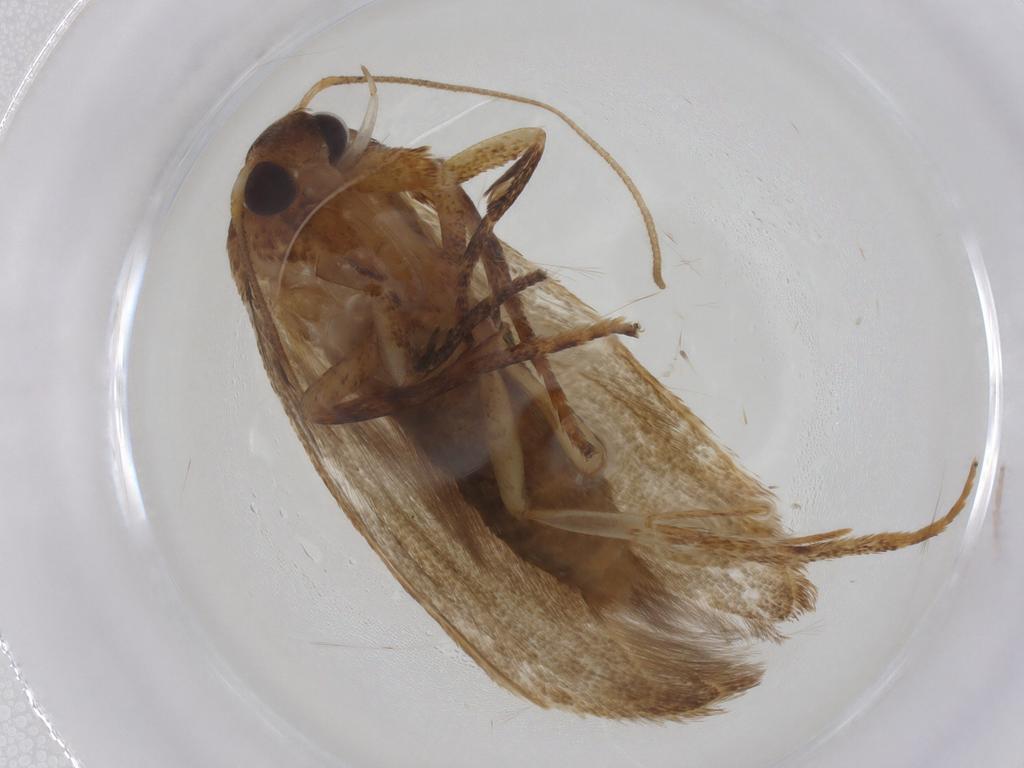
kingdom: Animalia
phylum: Arthropoda
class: Insecta
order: Lepidoptera
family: Blastobasidae
